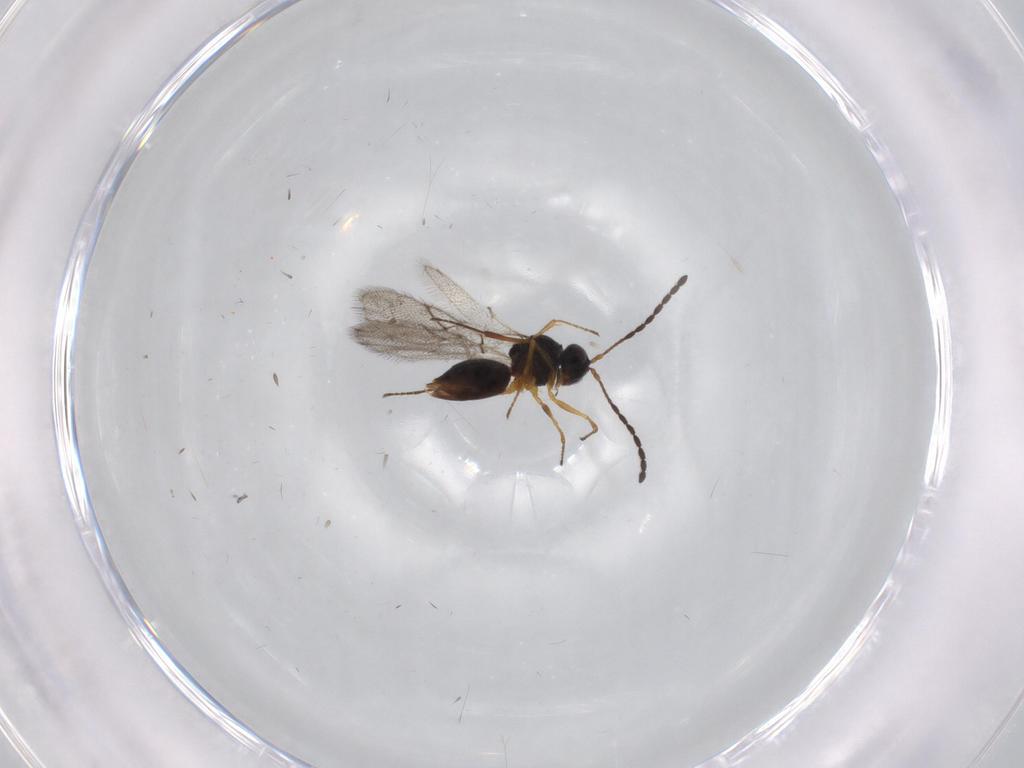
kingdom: Animalia
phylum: Arthropoda
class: Insecta
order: Hymenoptera
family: Figitidae
